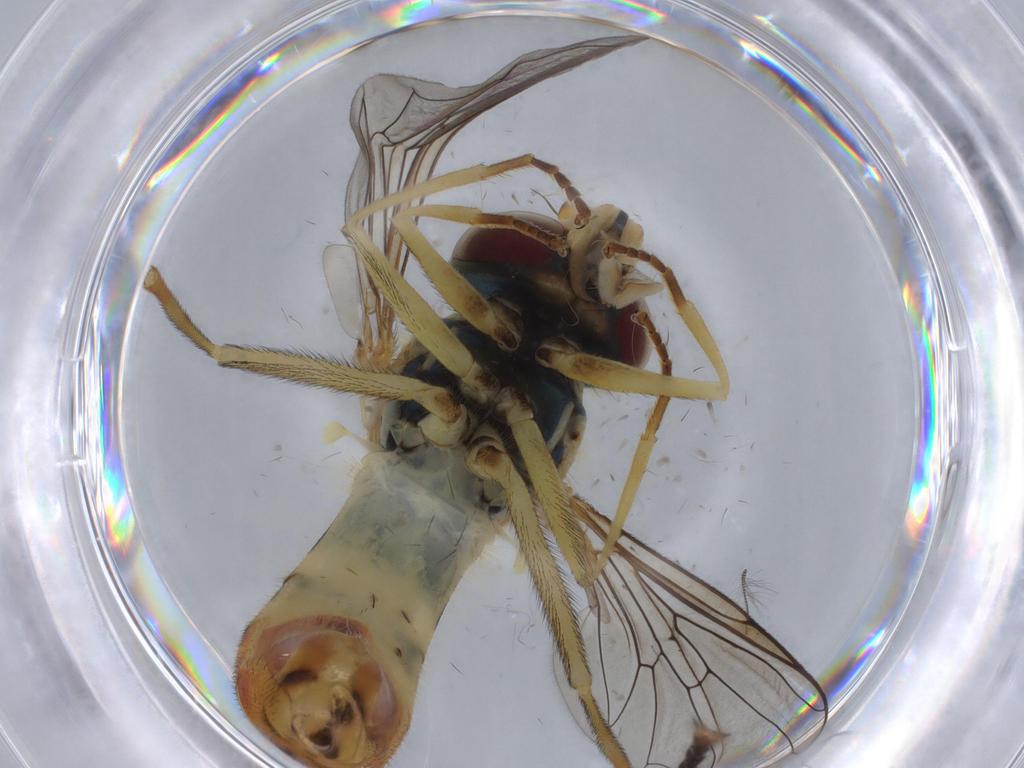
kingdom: Animalia
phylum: Arthropoda
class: Insecta
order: Diptera
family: Syrphidae
